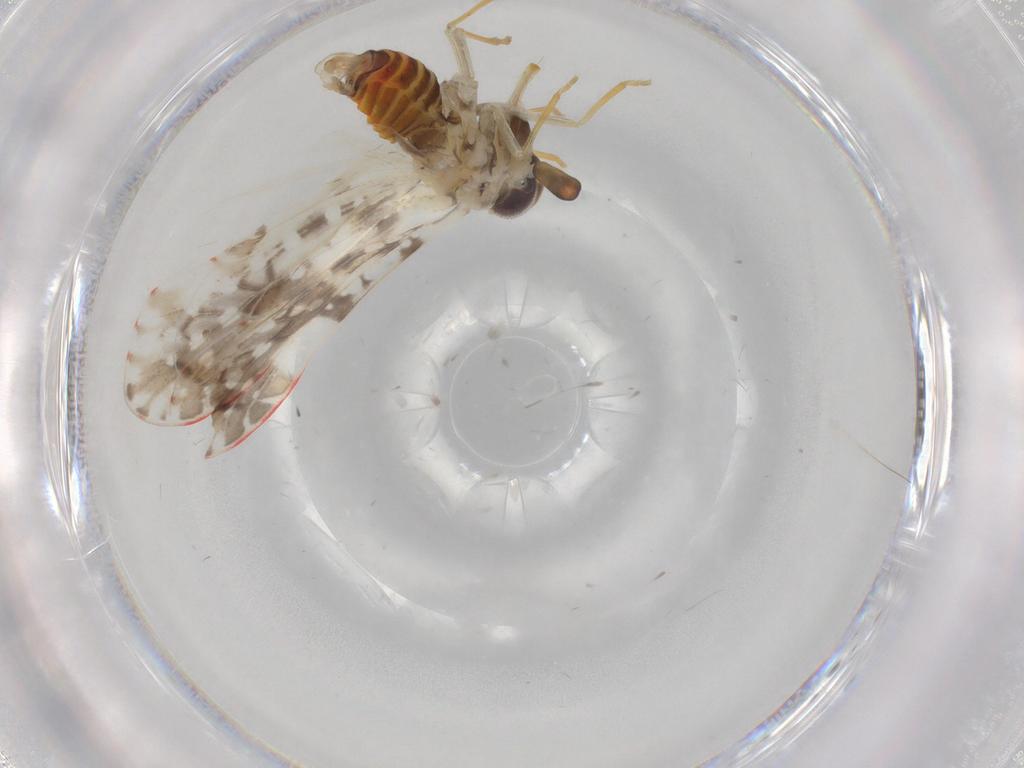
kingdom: Animalia
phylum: Arthropoda
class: Insecta
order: Hemiptera
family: Derbidae
